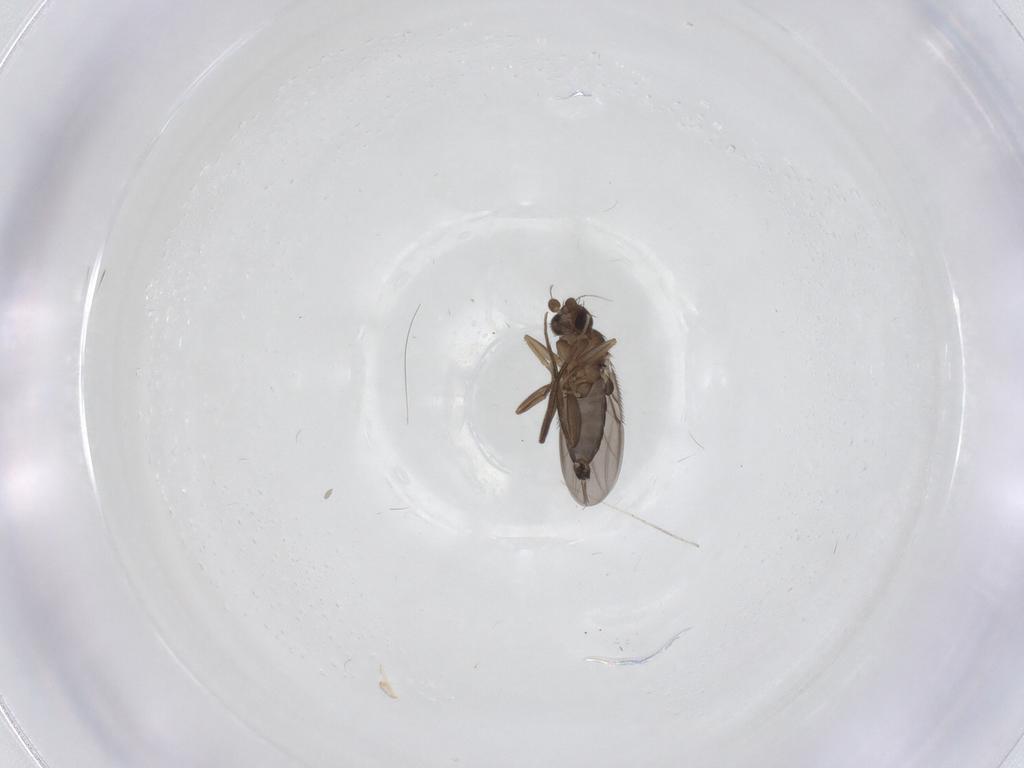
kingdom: Animalia
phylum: Arthropoda
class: Insecta
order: Diptera
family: Phoridae
